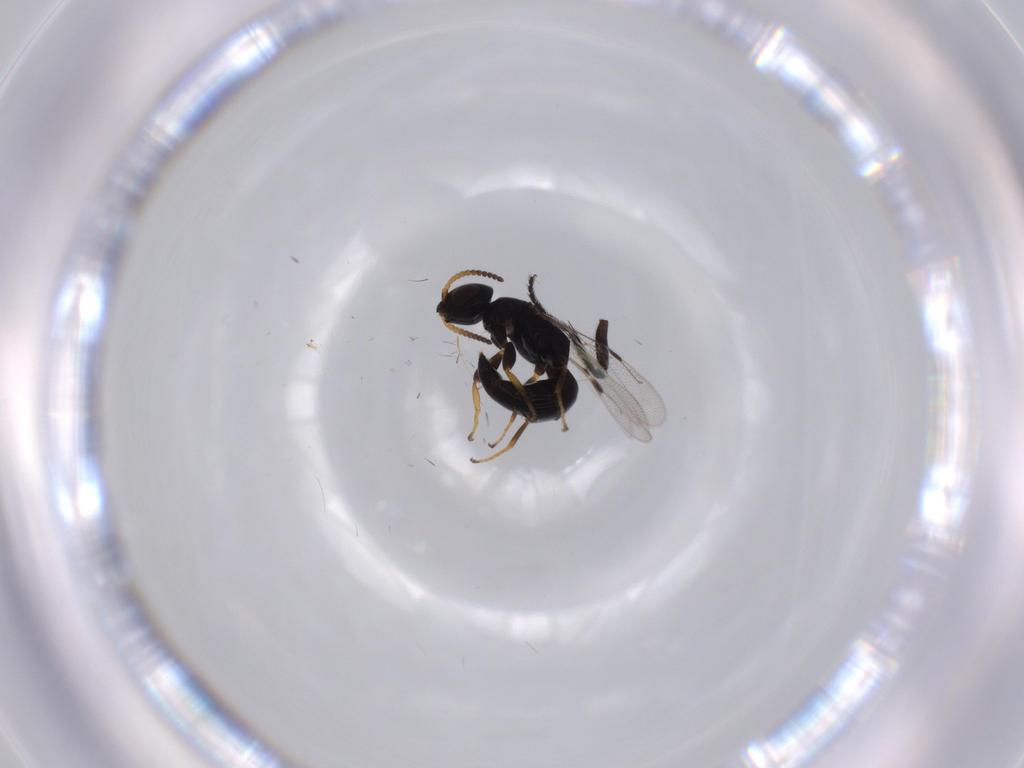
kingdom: Animalia
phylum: Arthropoda
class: Insecta
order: Hymenoptera
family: Bethylidae
